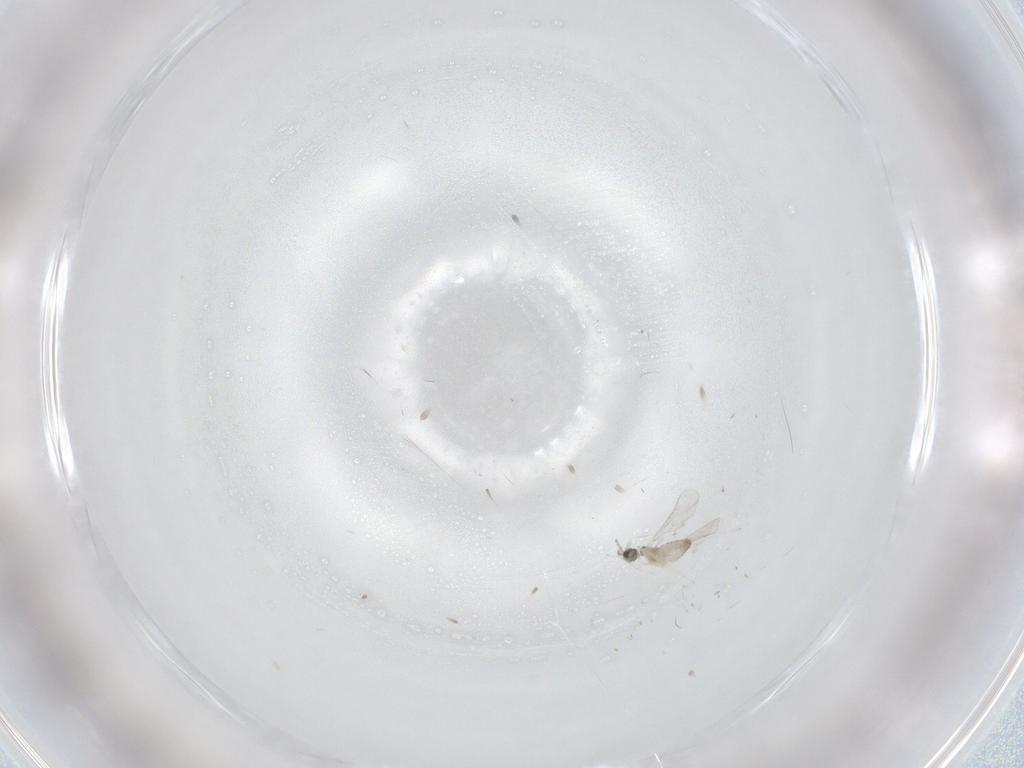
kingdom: Animalia
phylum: Arthropoda
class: Insecta
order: Diptera
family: Cecidomyiidae
